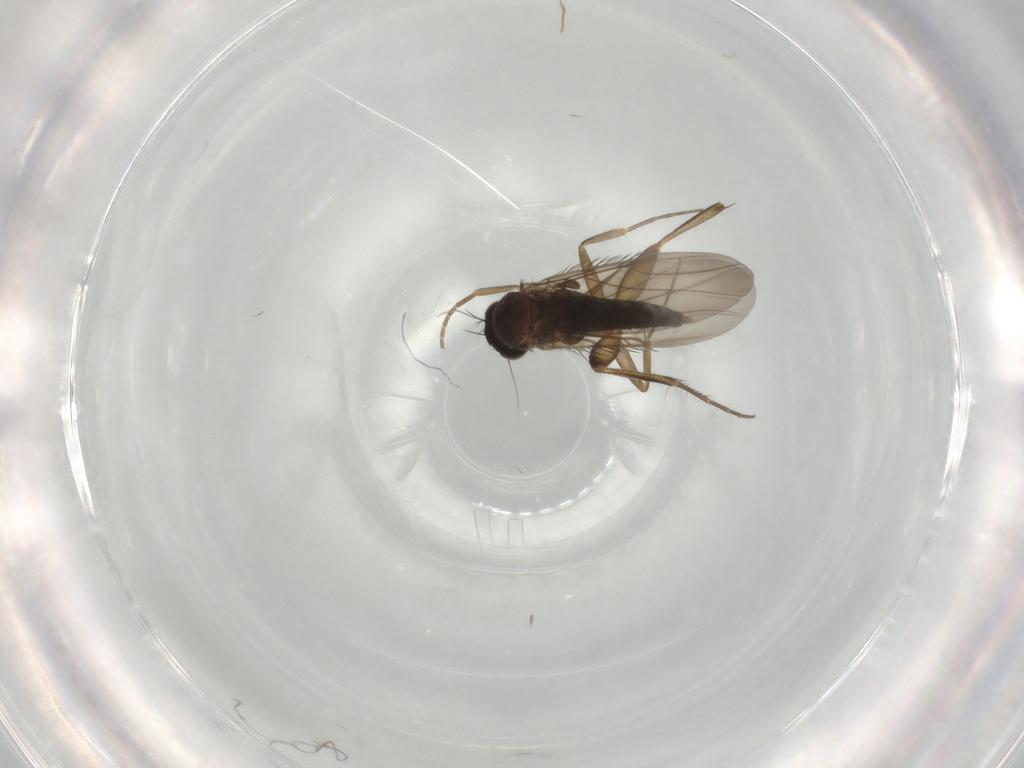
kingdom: Animalia
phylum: Arthropoda
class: Insecta
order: Diptera
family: Phoridae
